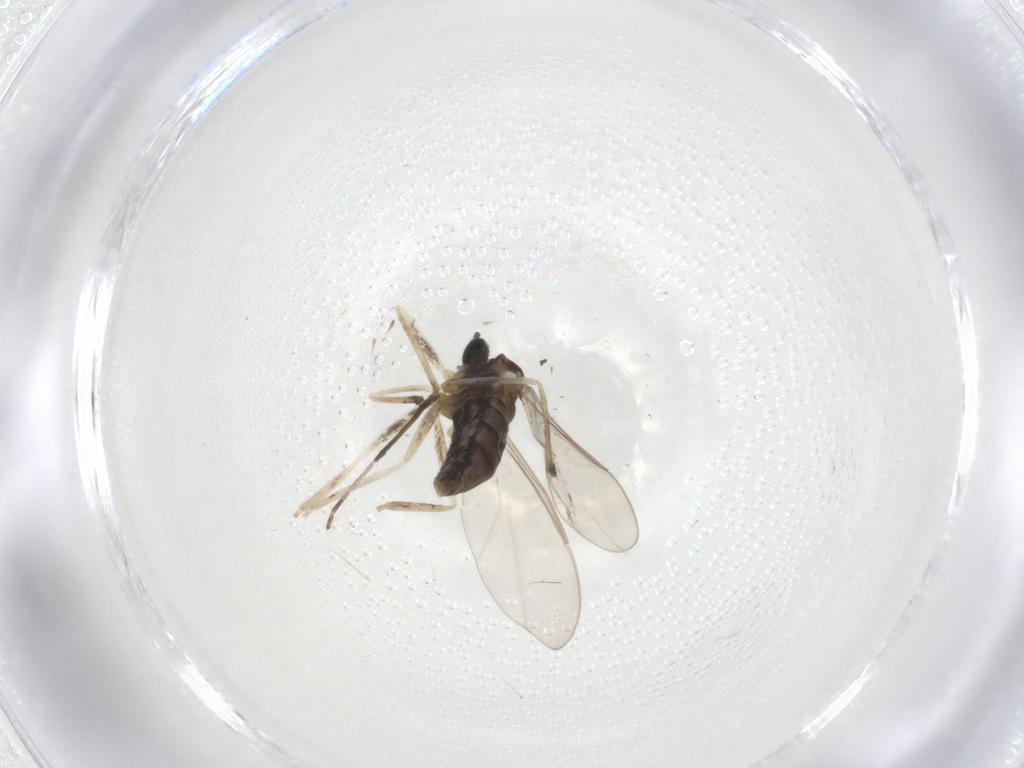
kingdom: Animalia
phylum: Arthropoda
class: Insecta
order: Diptera
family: Cecidomyiidae
